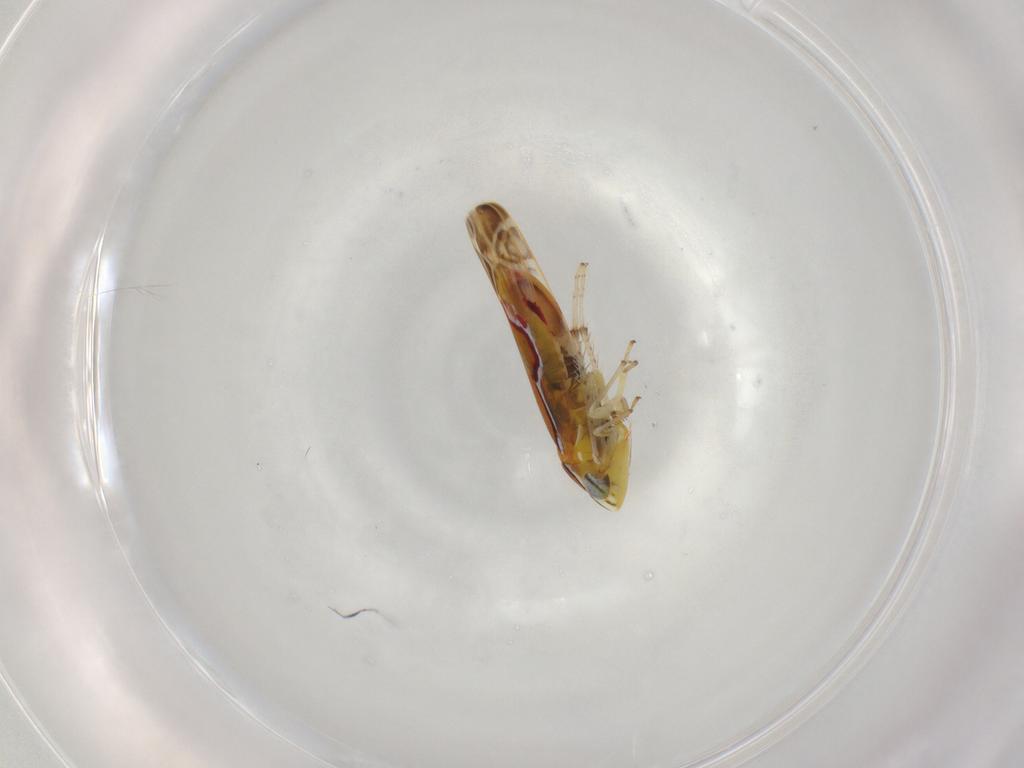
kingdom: Animalia
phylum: Arthropoda
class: Insecta
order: Hemiptera
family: Cicadellidae
